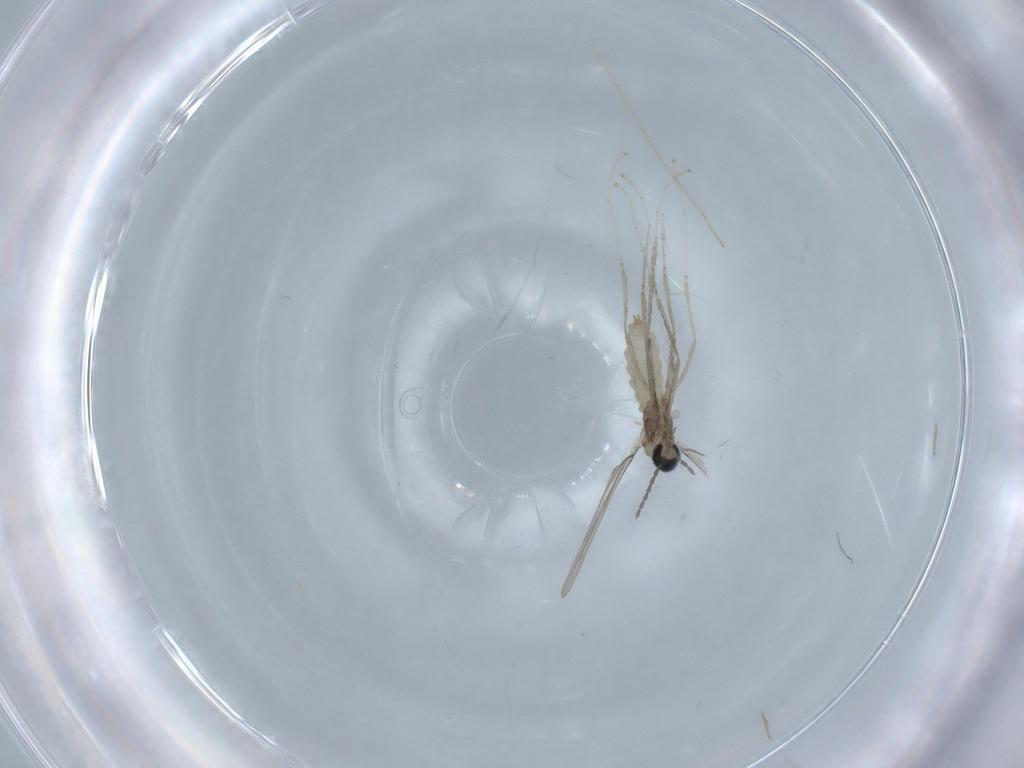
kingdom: Animalia
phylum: Arthropoda
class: Insecta
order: Diptera
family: Cecidomyiidae
